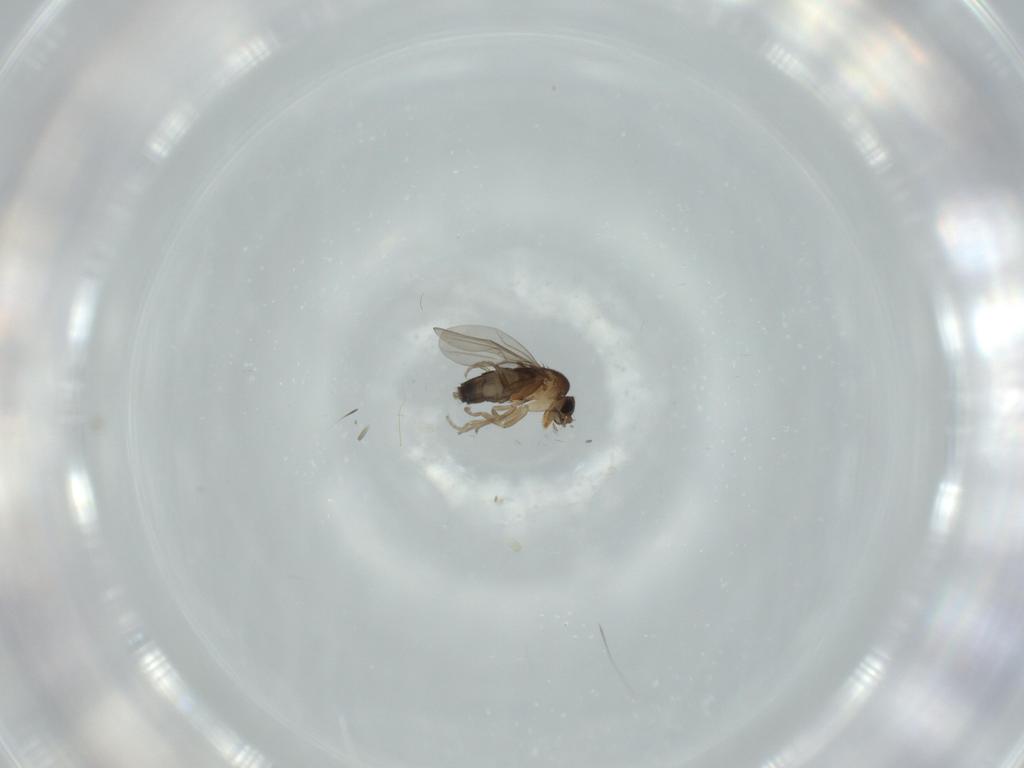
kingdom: Animalia
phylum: Arthropoda
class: Insecta
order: Diptera
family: Phoridae
